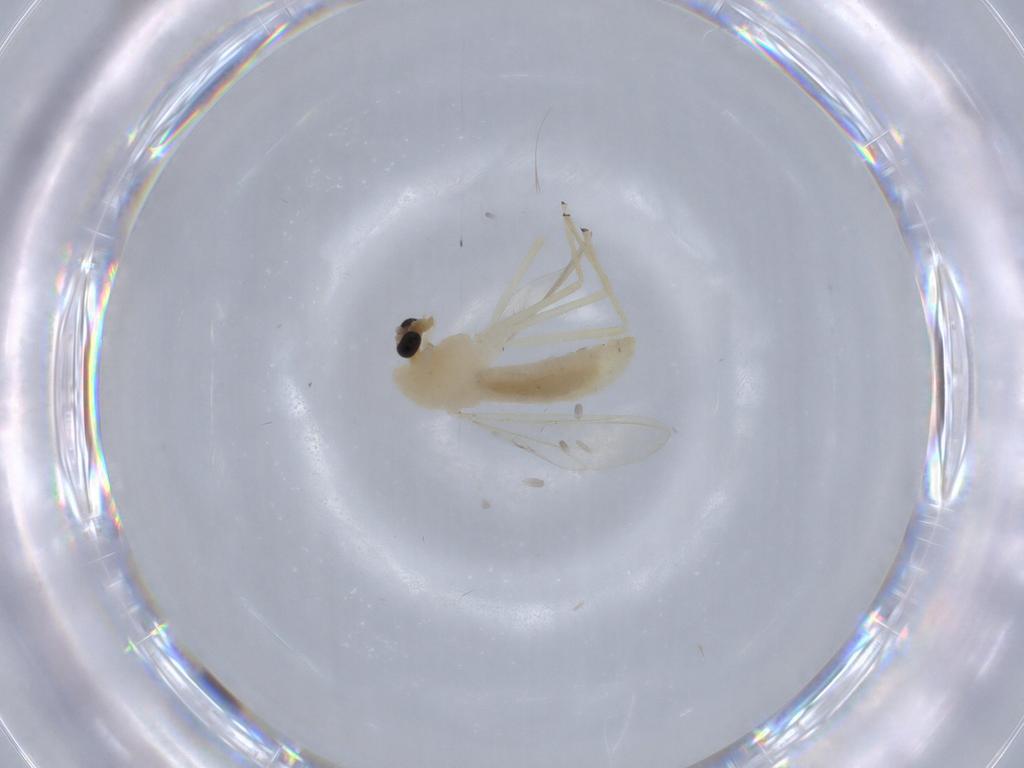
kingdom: Animalia
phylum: Arthropoda
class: Insecta
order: Diptera
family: Chironomidae
